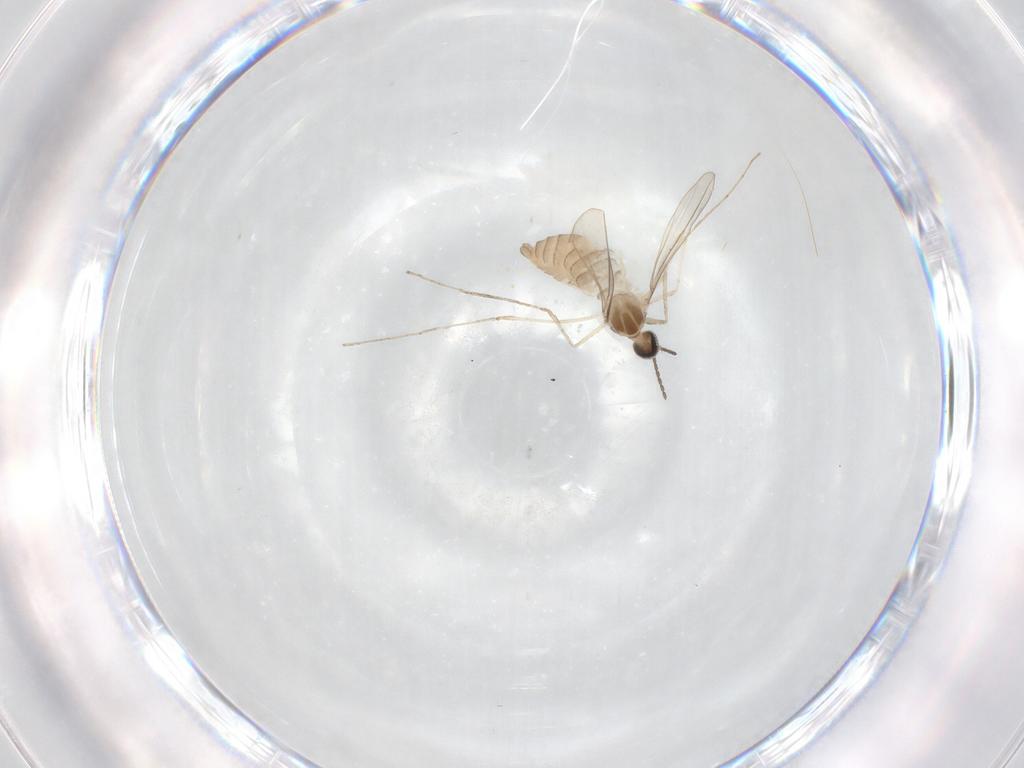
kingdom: Animalia
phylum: Arthropoda
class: Insecta
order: Diptera
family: Cecidomyiidae
